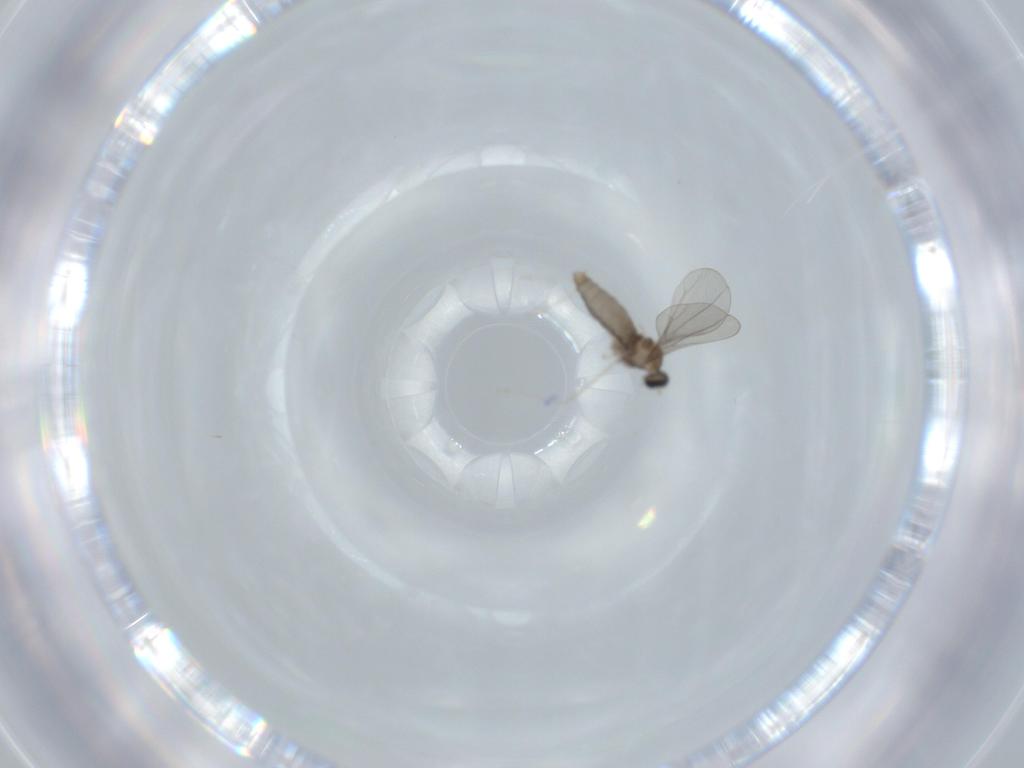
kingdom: Animalia
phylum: Arthropoda
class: Insecta
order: Diptera
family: Cecidomyiidae
